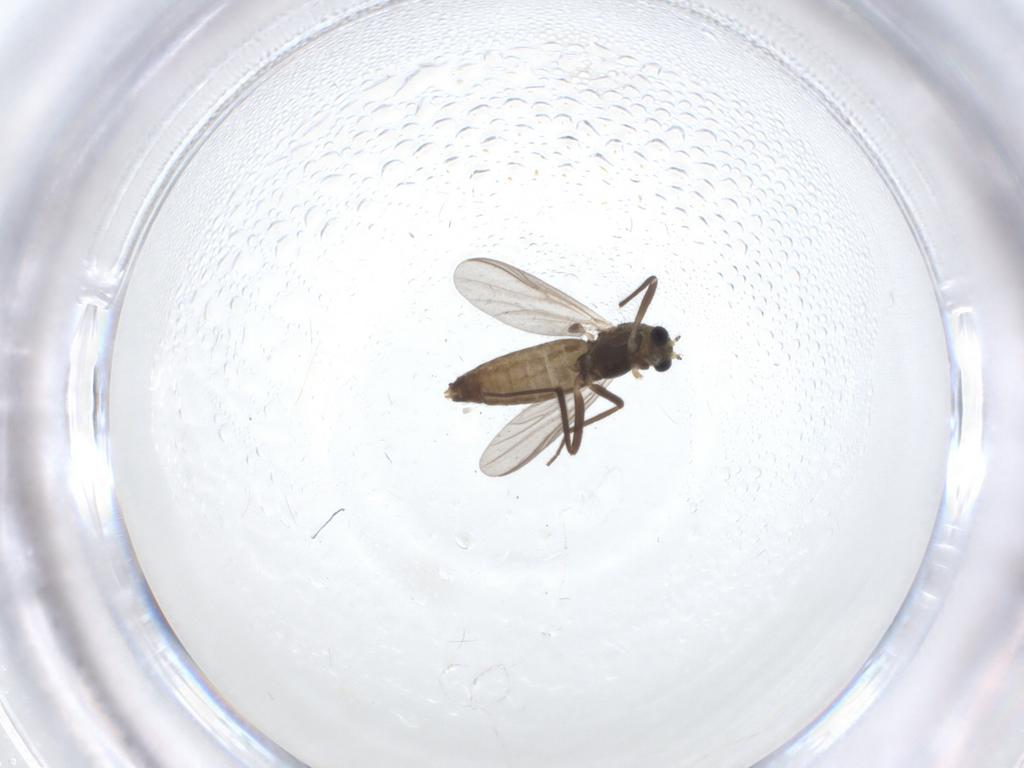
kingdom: Animalia
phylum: Arthropoda
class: Insecta
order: Diptera
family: Chironomidae
